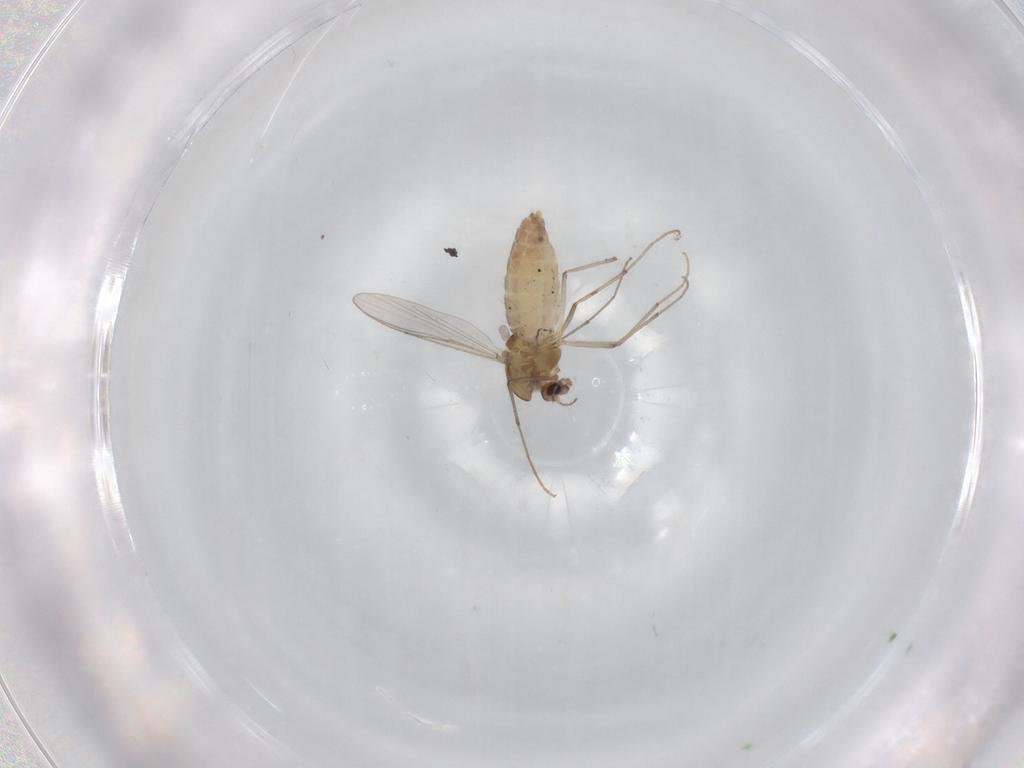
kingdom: Animalia
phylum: Arthropoda
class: Insecta
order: Diptera
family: Chironomidae
